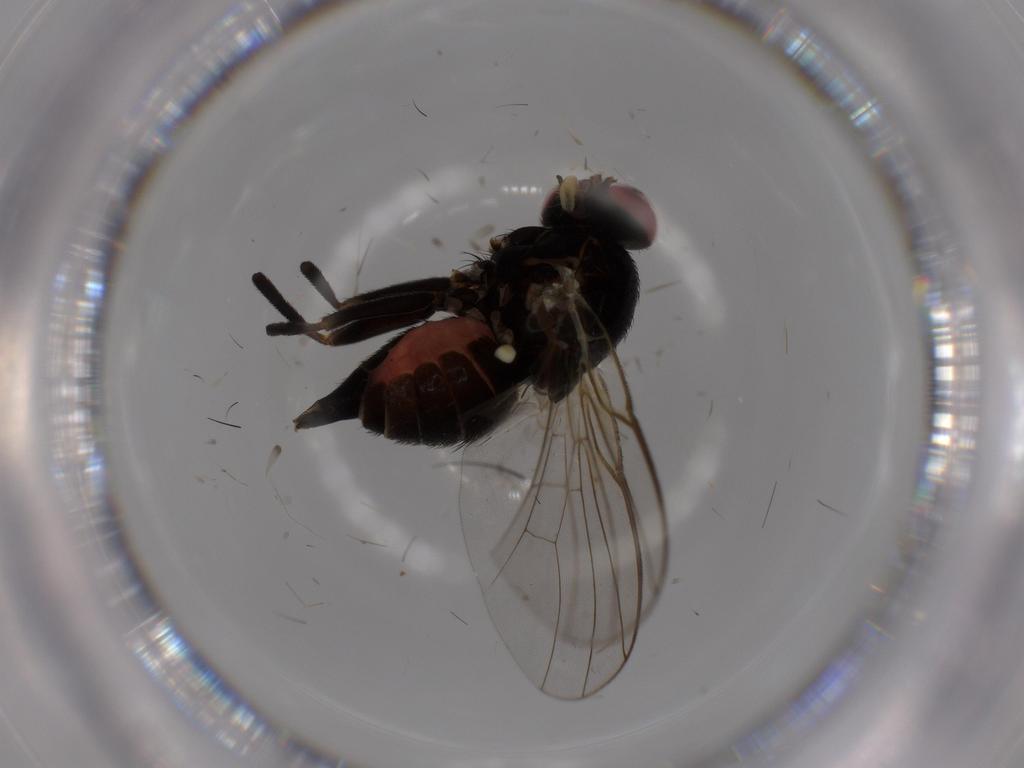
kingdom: Animalia
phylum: Arthropoda
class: Insecta
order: Diptera
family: Agromyzidae
